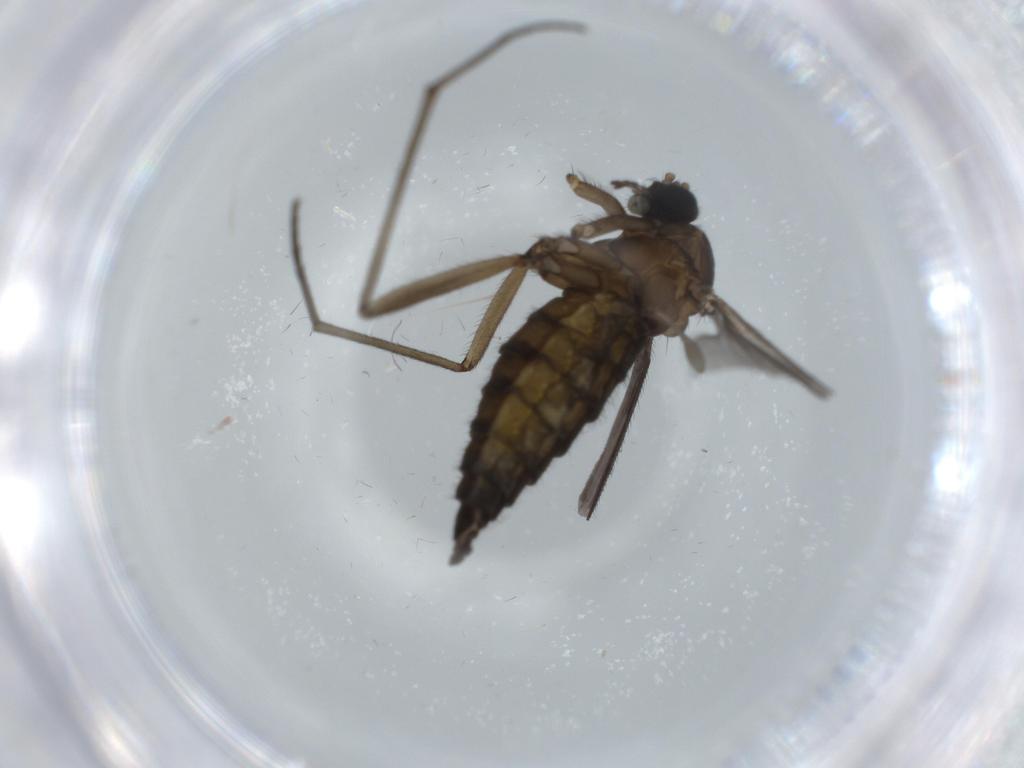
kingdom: Animalia
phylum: Arthropoda
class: Insecta
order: Diptera
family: Sciaridae
